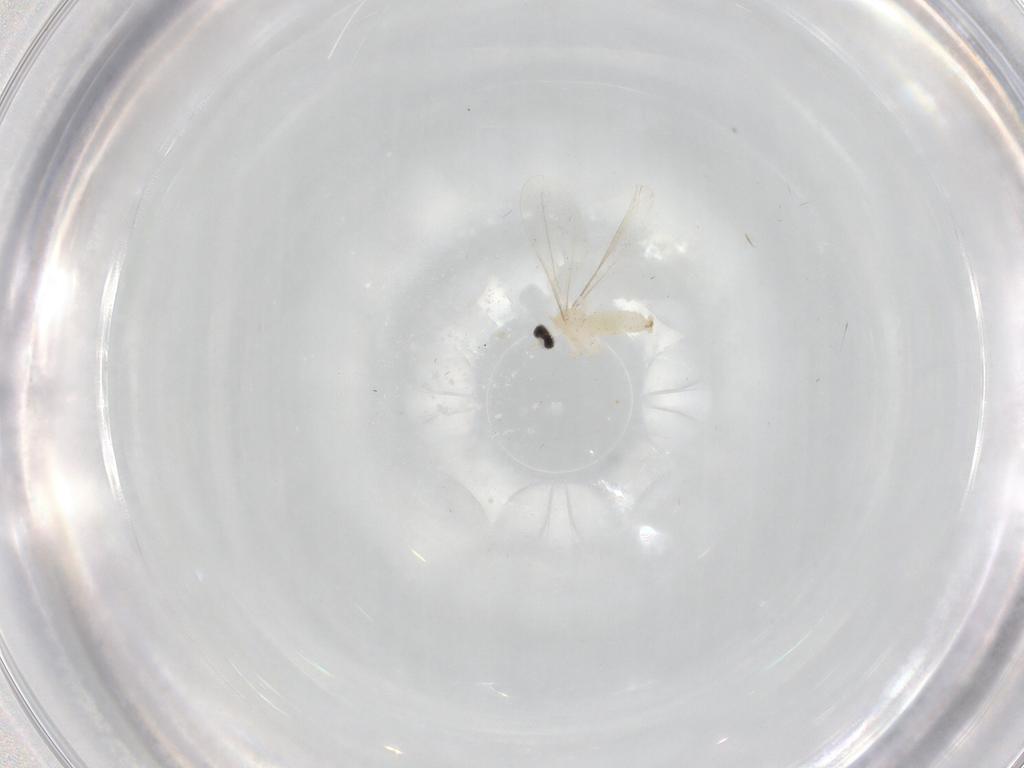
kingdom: Animalia
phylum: Arthropoda
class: Insecta
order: Diptera
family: Cecidomyiidae
